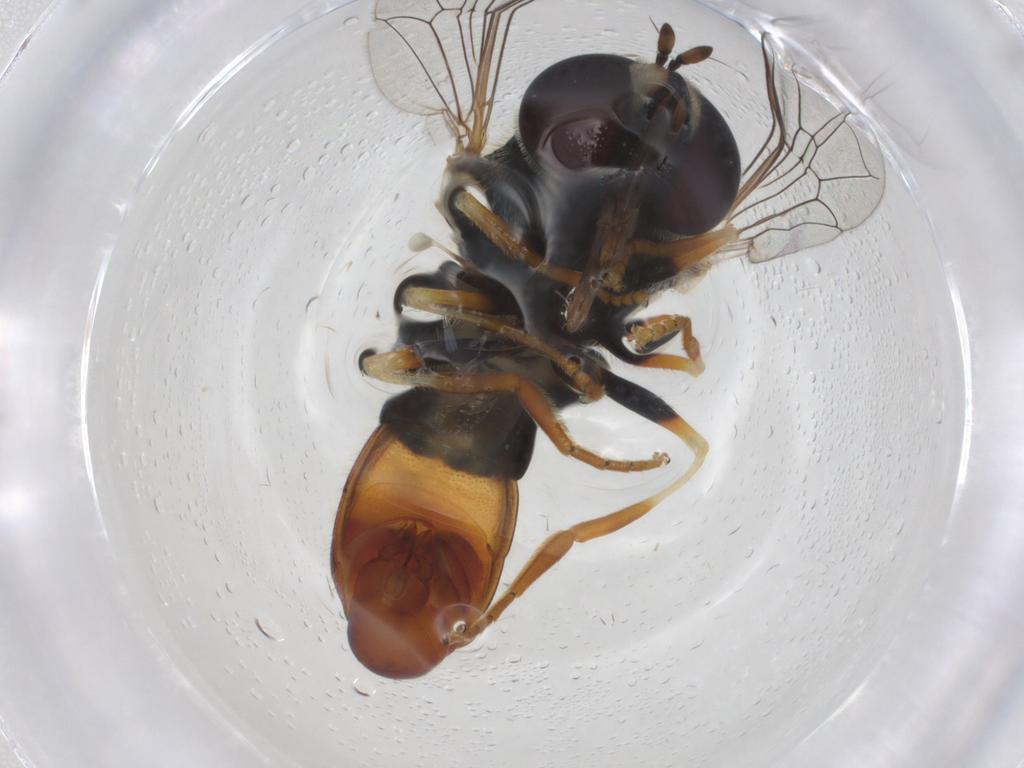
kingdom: Animalia
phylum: Arthropoda
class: Insecta
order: Diptera
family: Syrphidae
